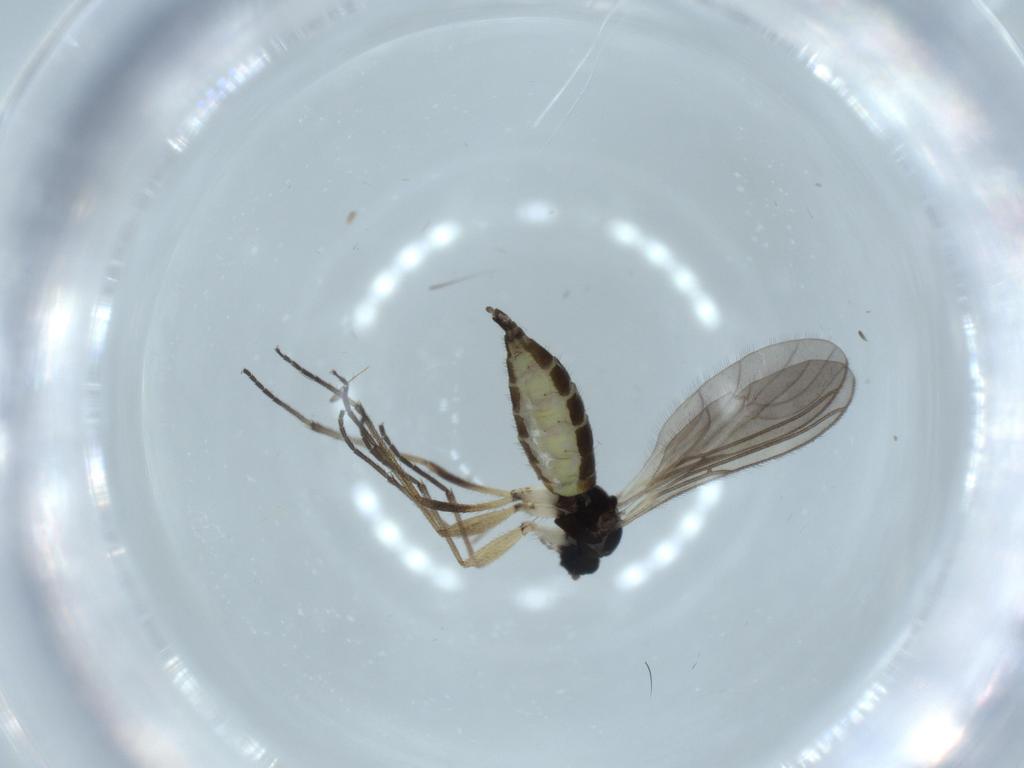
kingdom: Animalia
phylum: Arthropoda
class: Insecta
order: Diptera
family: Sciaridae
